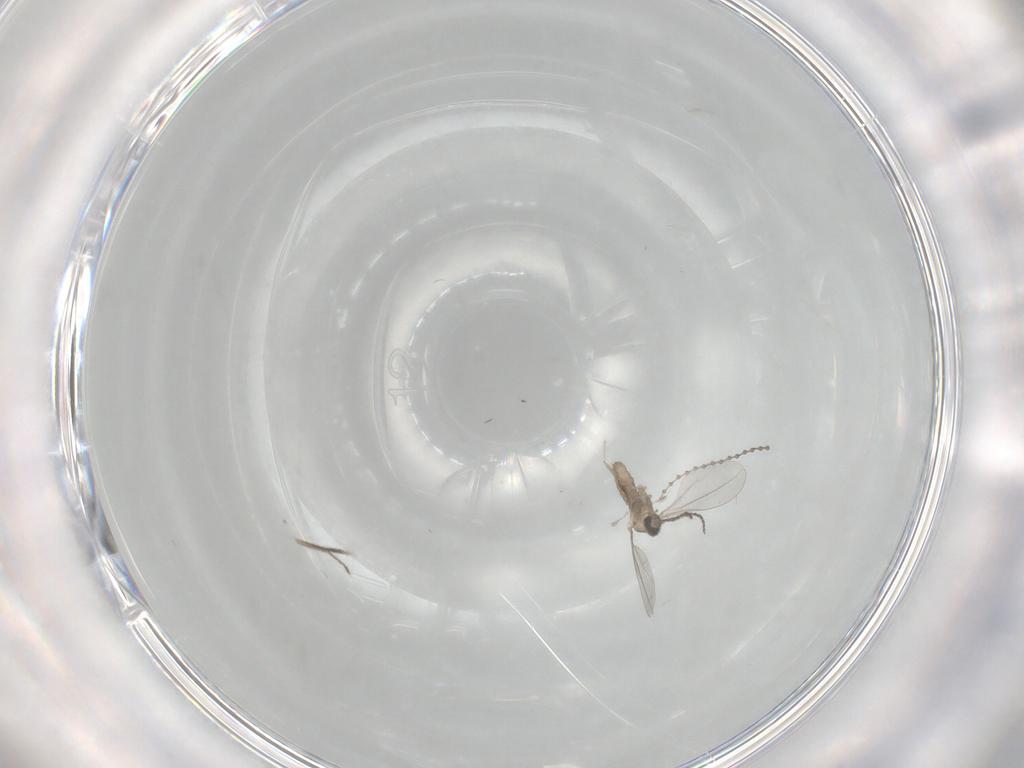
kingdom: Animalia
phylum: Arthropoda
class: Insecta
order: Diptera
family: Ceratopogonidae
